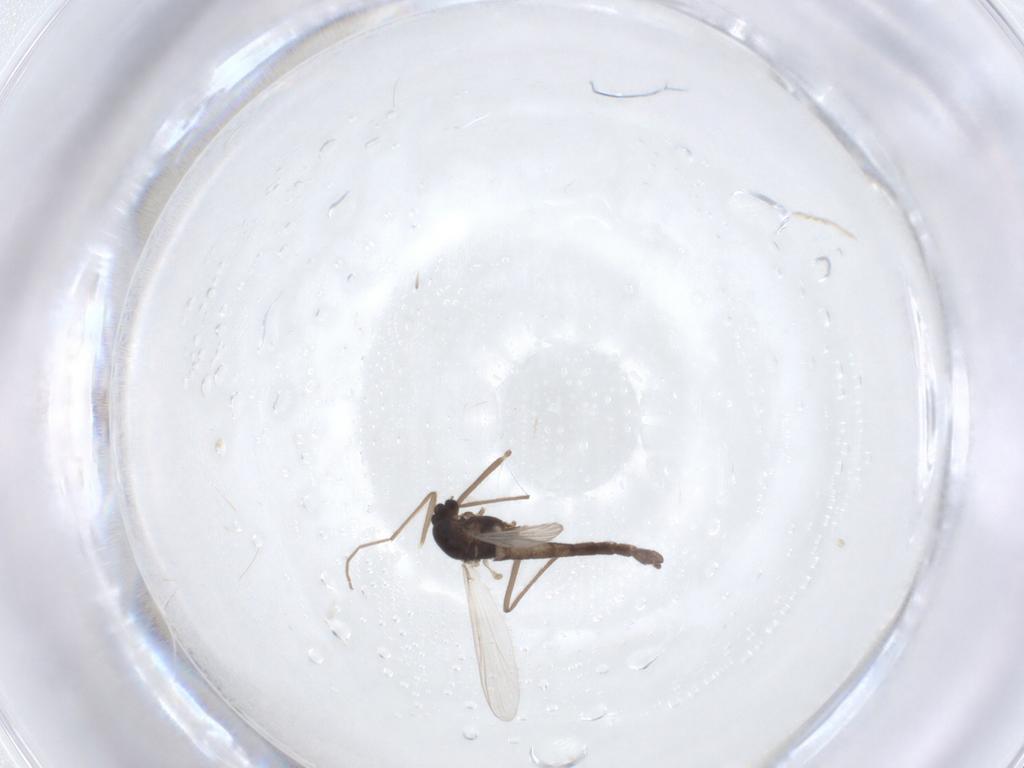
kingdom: Animalia
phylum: Arthropoda
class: Insecta
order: Diptera
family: Chironomidae
